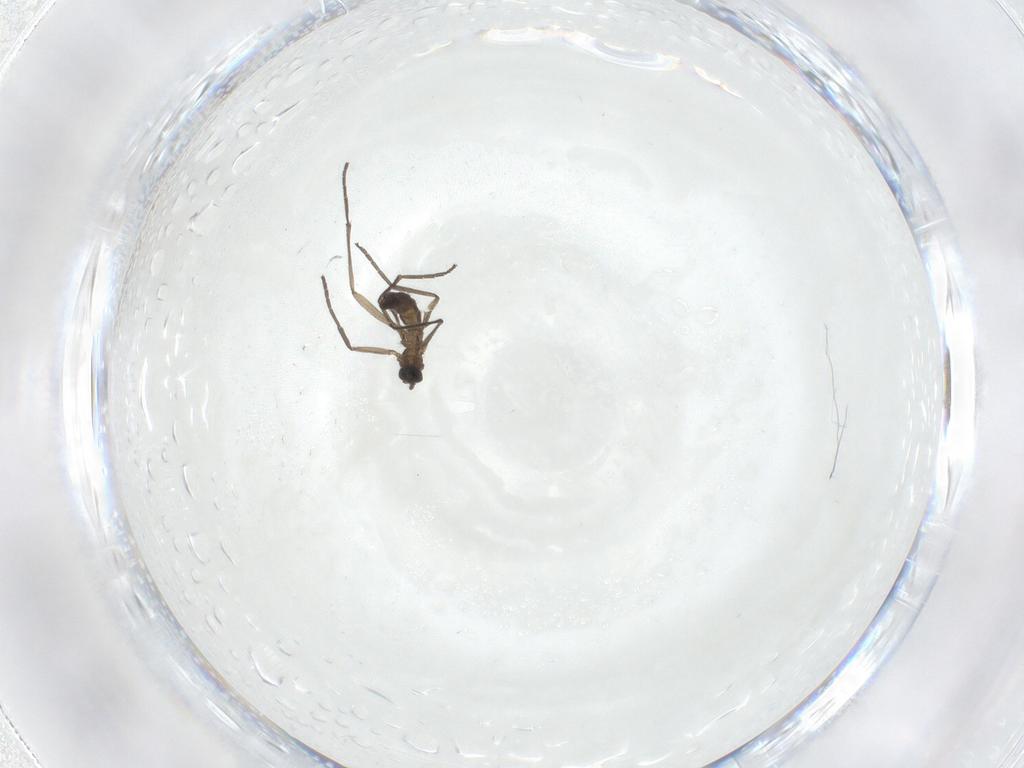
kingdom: Animalia
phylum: Arthropoda
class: Insecta
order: Diptera
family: Sciaridae
